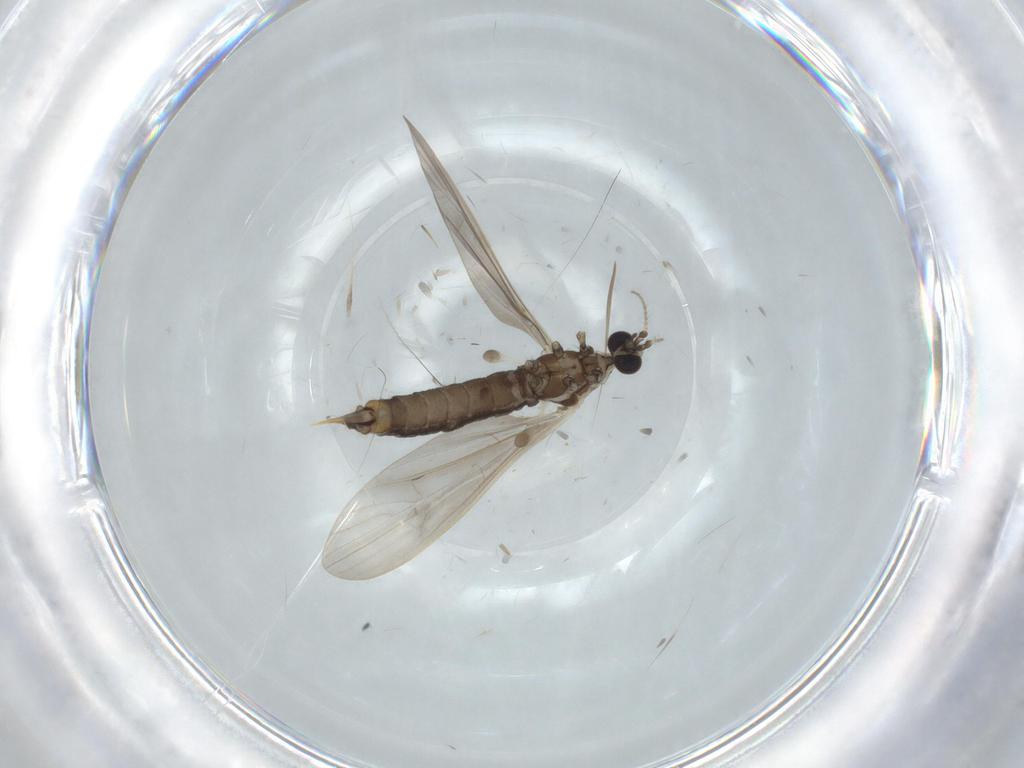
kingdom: Animalia
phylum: Arthropoda
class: Insecta
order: Diptera
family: Limoniidae
